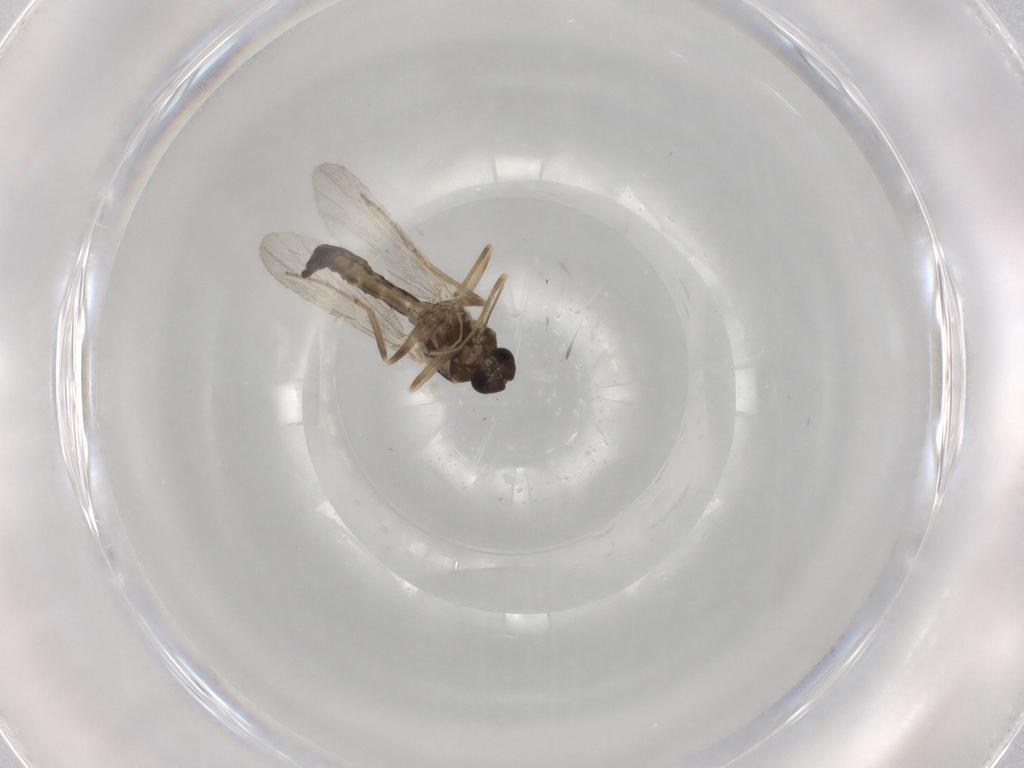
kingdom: Animalia
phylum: Arthropoda
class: Insecta
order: Diptera
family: Ceratopogonidae
